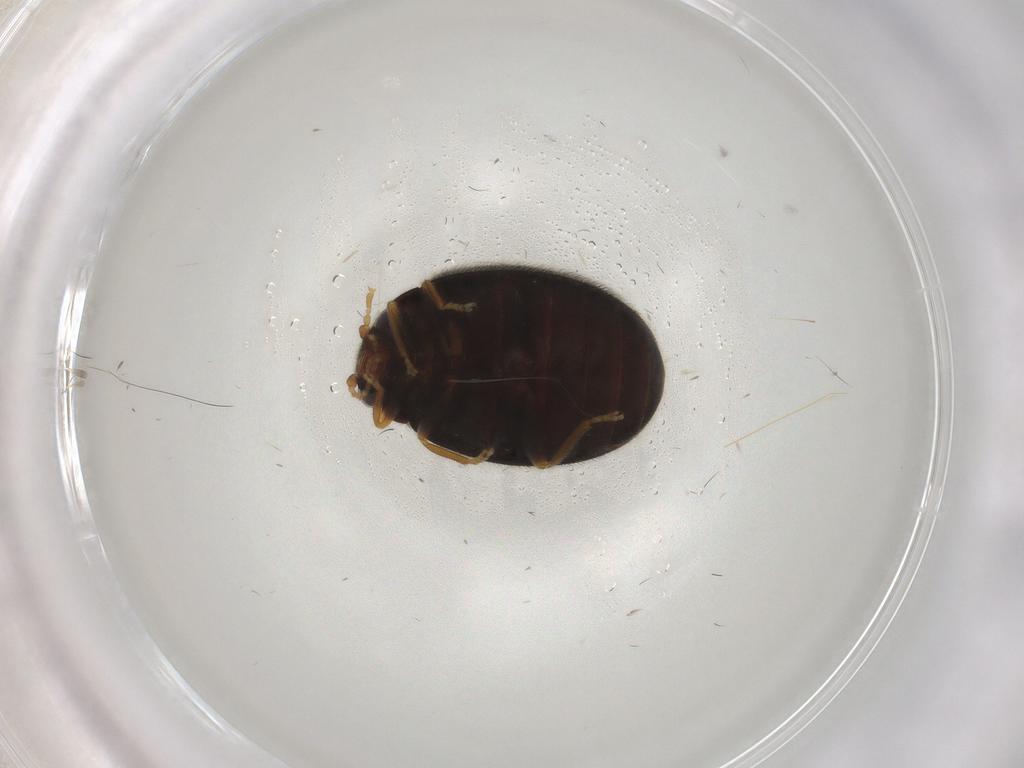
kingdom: Animalia
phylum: Arthropoda
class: Insecta
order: Coleoptera
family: Scirtidae
